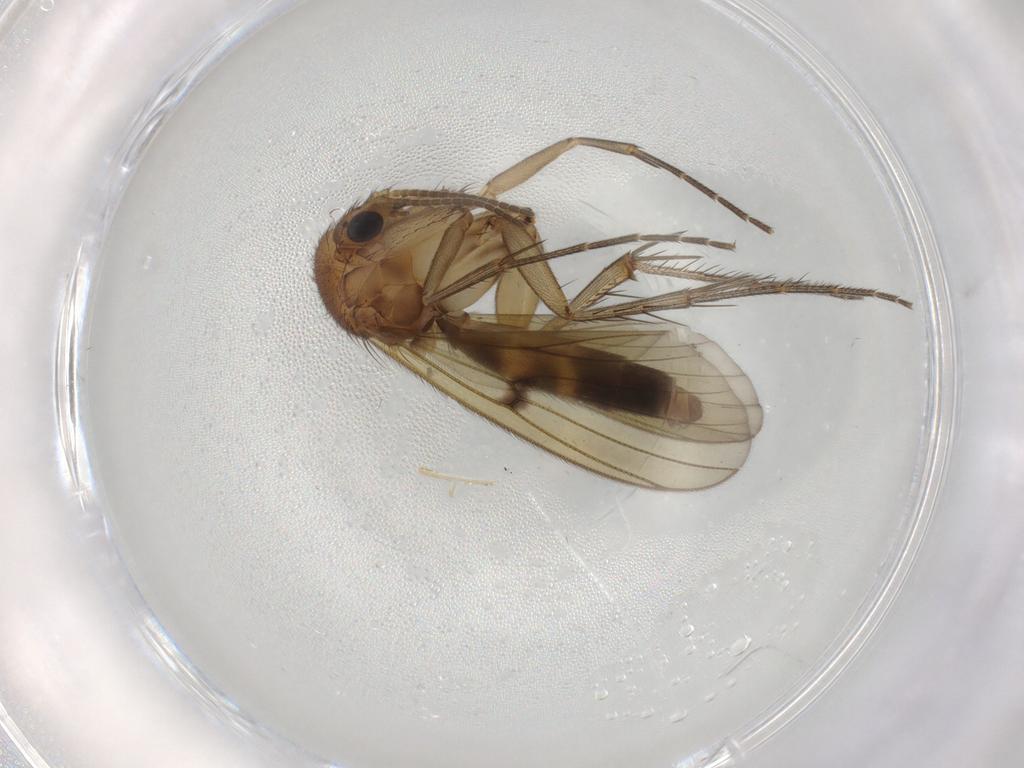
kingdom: Animalia
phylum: Arthropoda
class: Insecta
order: Diptera
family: Mycetophilidae
